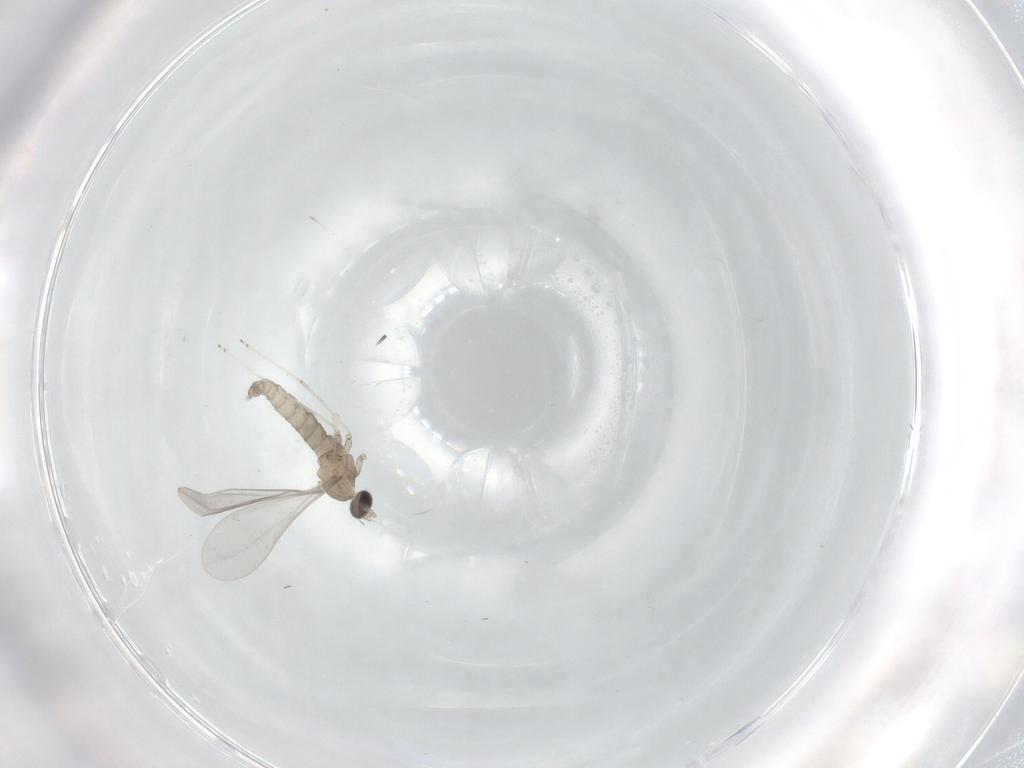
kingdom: Animalia
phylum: Arthropoda
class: Insecta
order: Diptera
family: Cecidomyiidae
